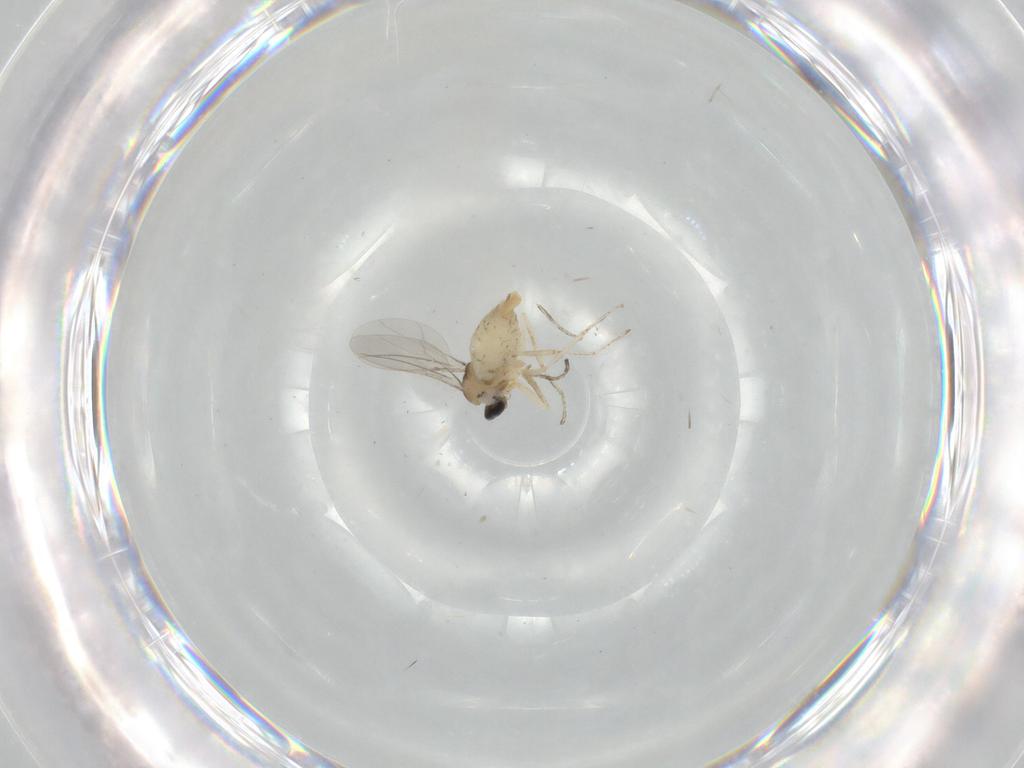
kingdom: Animalia
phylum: Arthropoda
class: Insecta
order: Diptera
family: Cecidomyiidae
